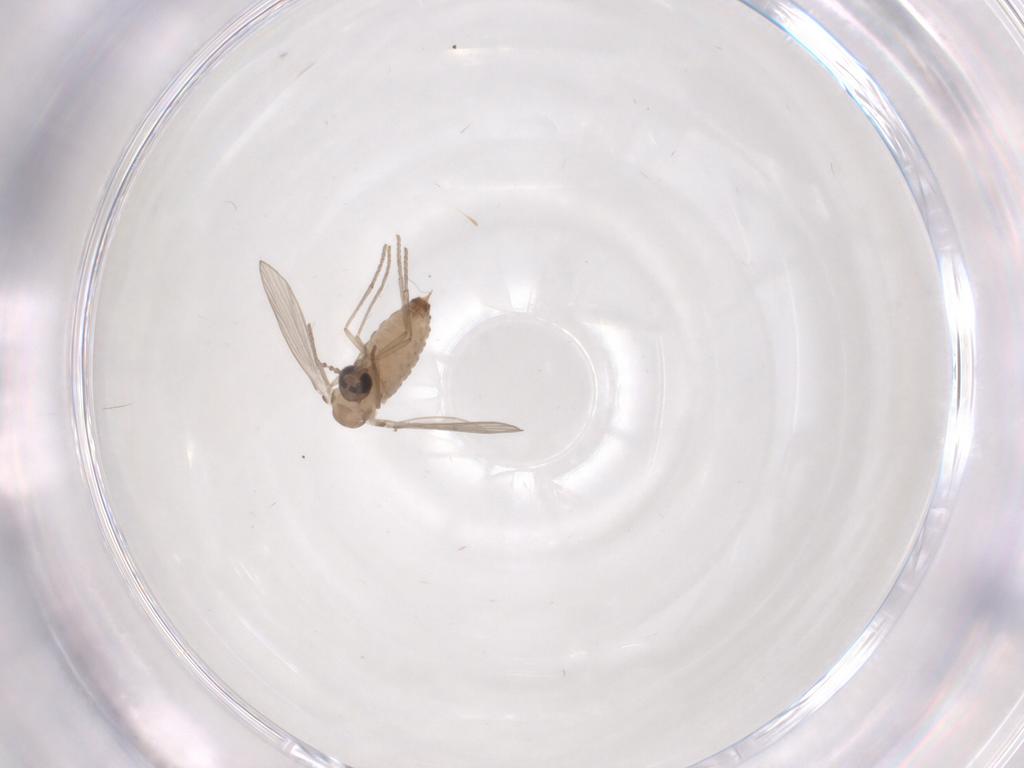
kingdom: Animalia
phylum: Arthropoda
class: Insecta
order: Diptera
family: Psychodidae
